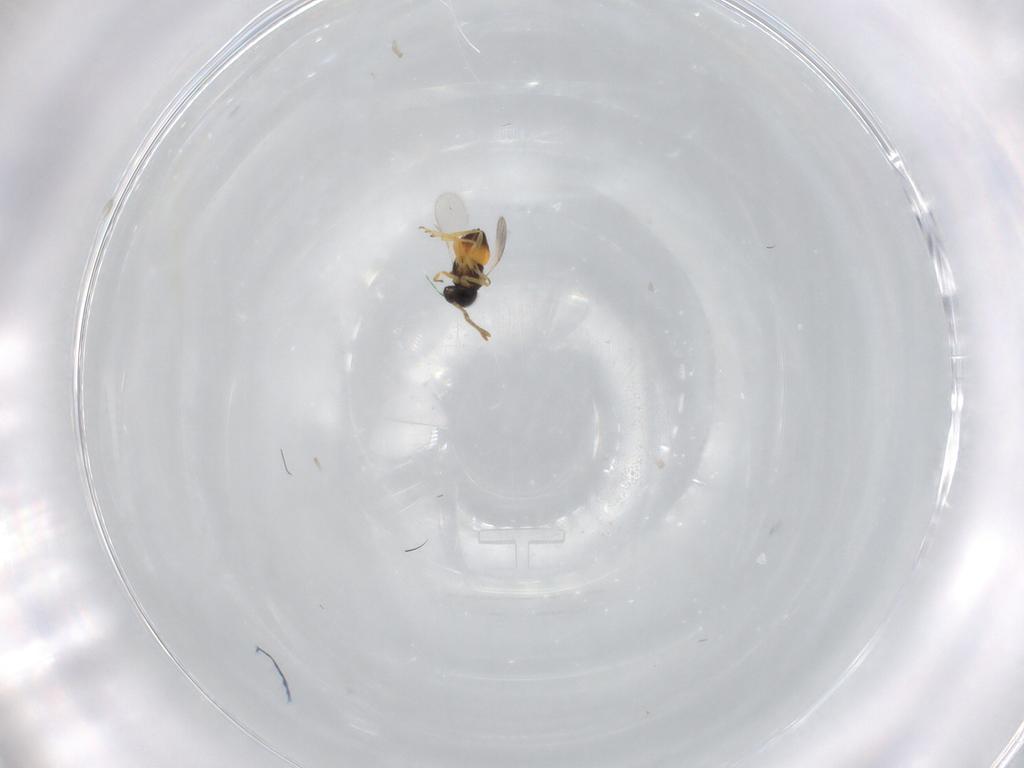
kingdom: Animalia
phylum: Arthropoda
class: Insecta
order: Hymenoptera
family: Encyrtidae
